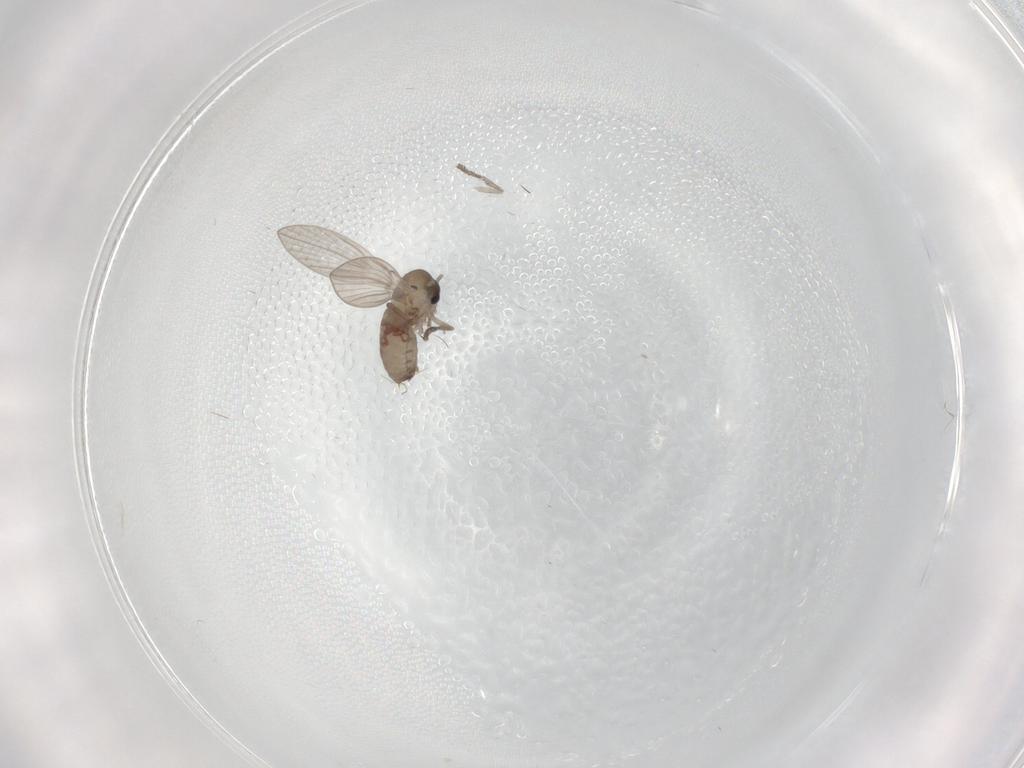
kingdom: Animalia
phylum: Arthropoda
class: Insecta
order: Diptera
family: Psychodidae
